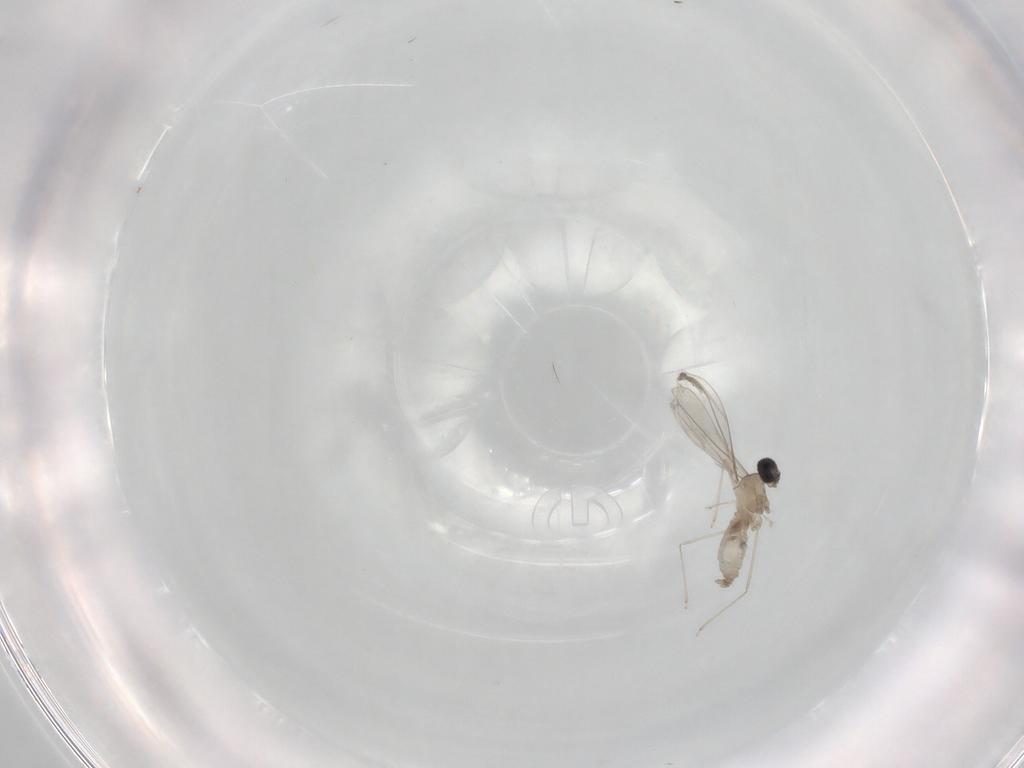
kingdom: Animalia
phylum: Arthropoda
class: Insecta
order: Diptera
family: Cecidomyiidae
